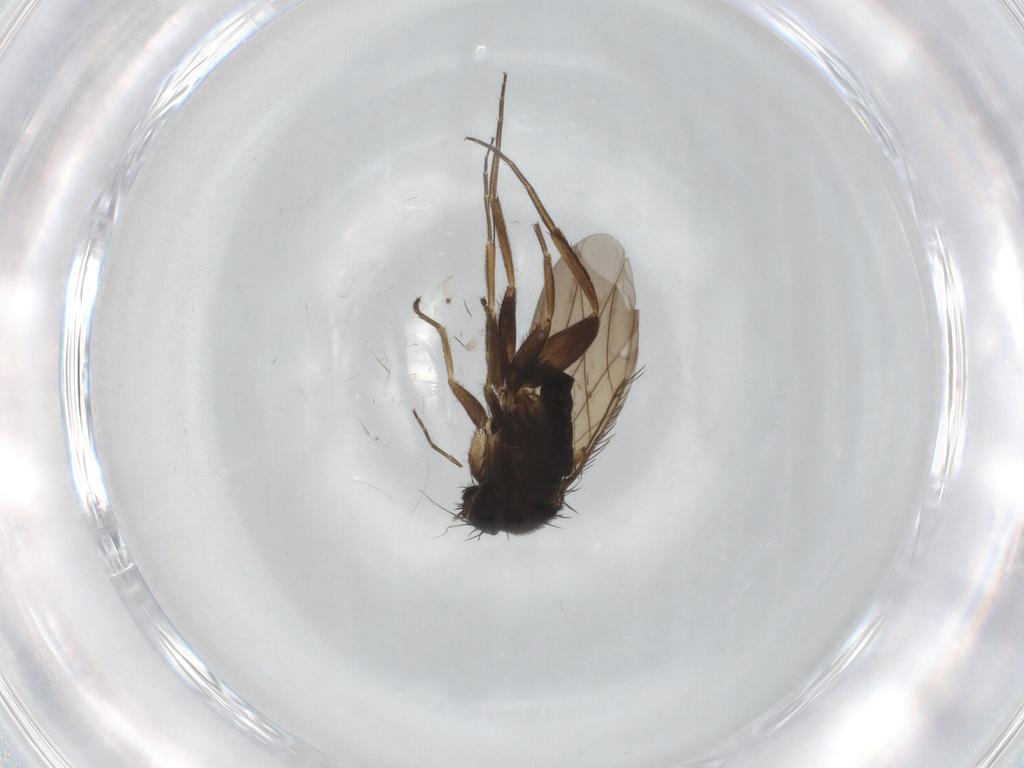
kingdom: Animalia
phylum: Arthropoda
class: Insecta
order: Diptera
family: Phoridae
